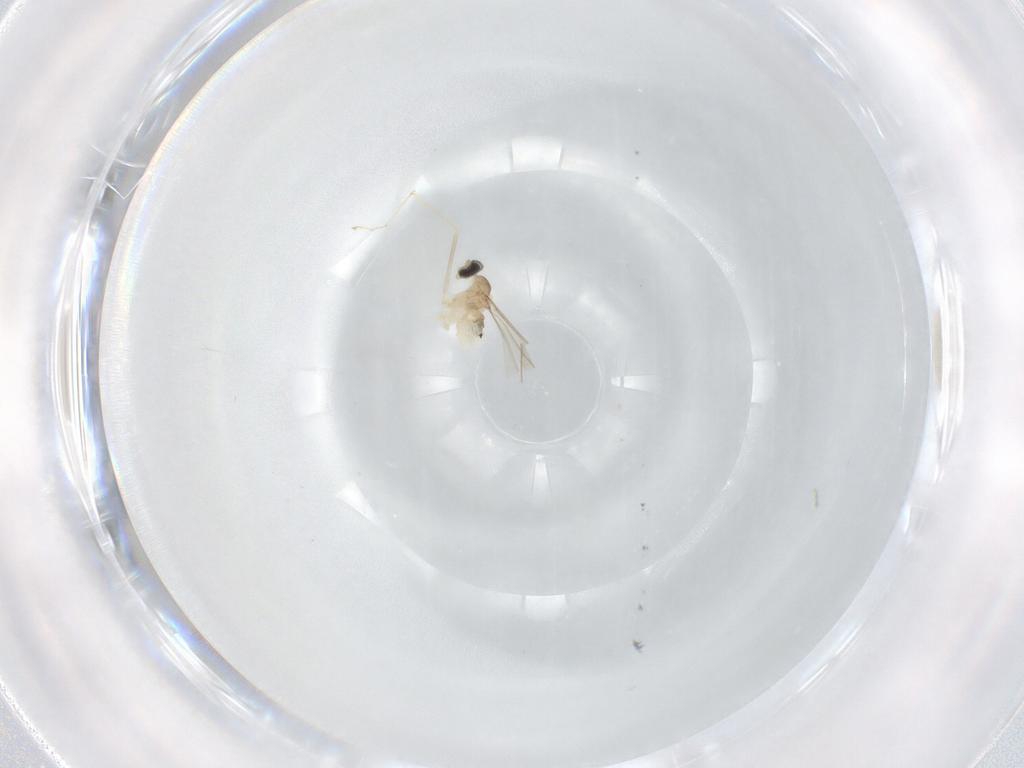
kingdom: Animalia
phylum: Arthropoda
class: Insecta
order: Diptera
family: Cecidomyiidae
